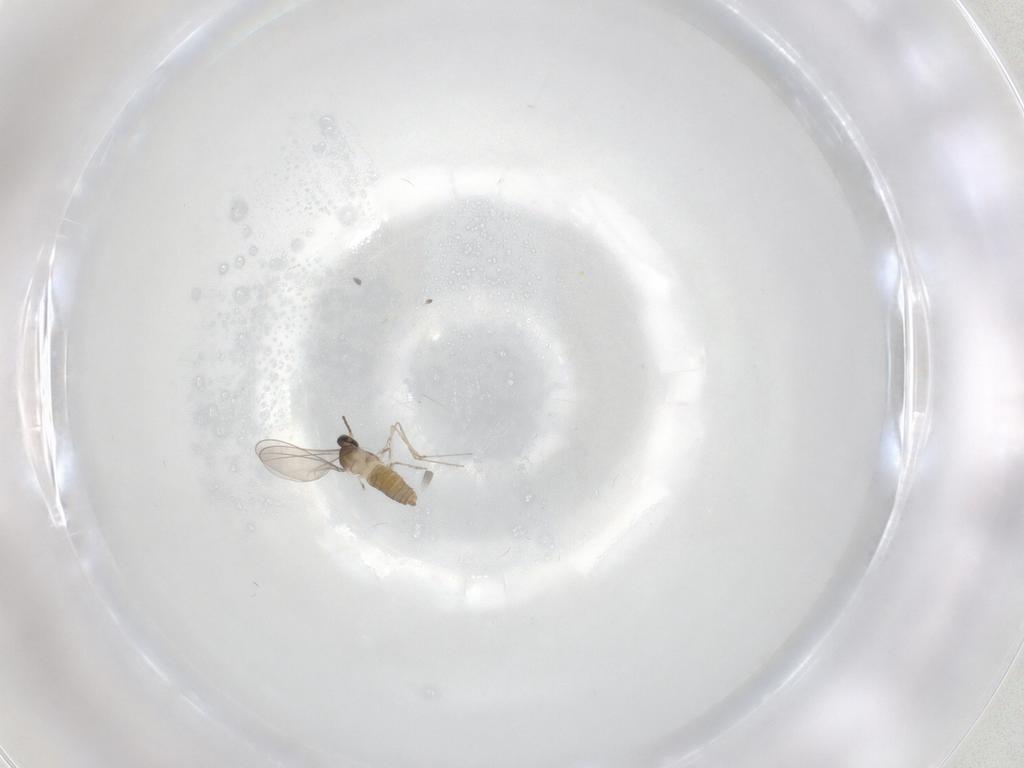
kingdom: Animalia
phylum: Arthropoda
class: Insecta
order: Diptera
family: Cecidomyiidae
